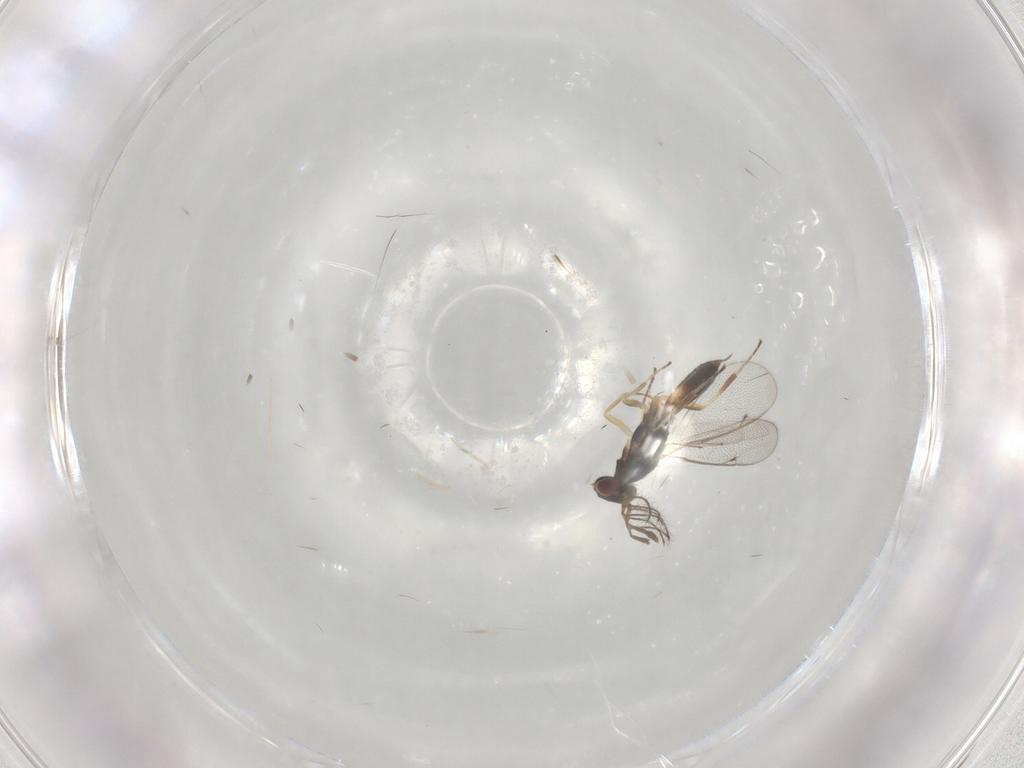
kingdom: Animalia
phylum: Arthropoda
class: Insecta
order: Hymenoptera
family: Eulophidae
